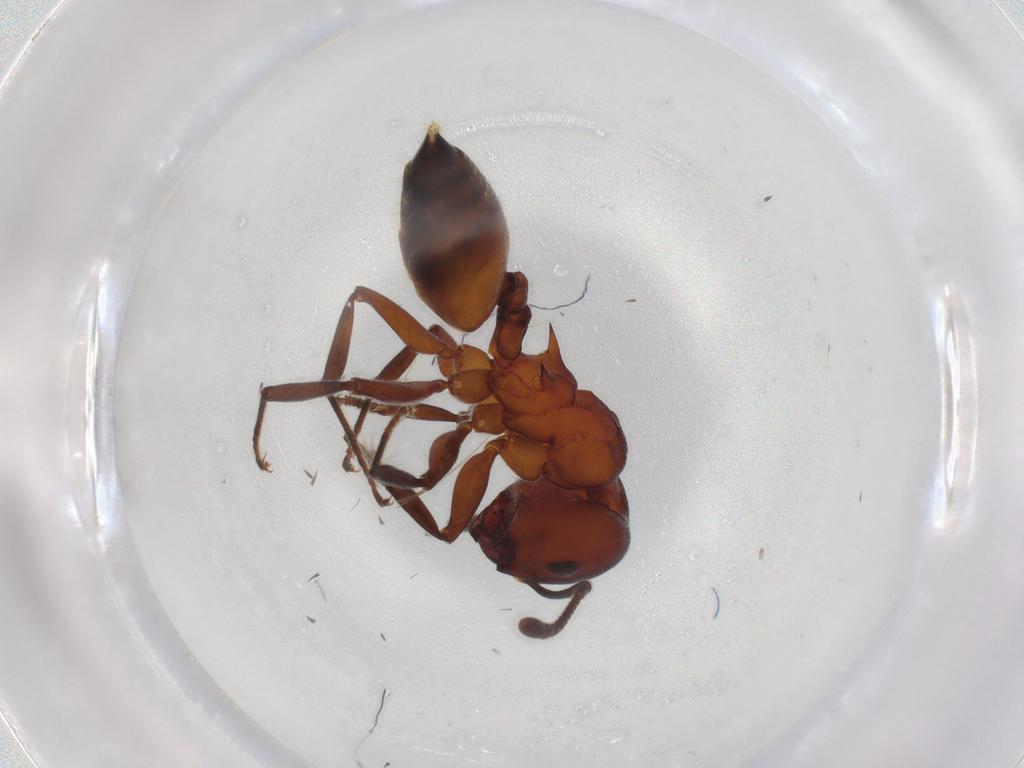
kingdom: Animalia
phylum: Arthropoda
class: Insecta
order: Hymenoptera
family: Formicidae
